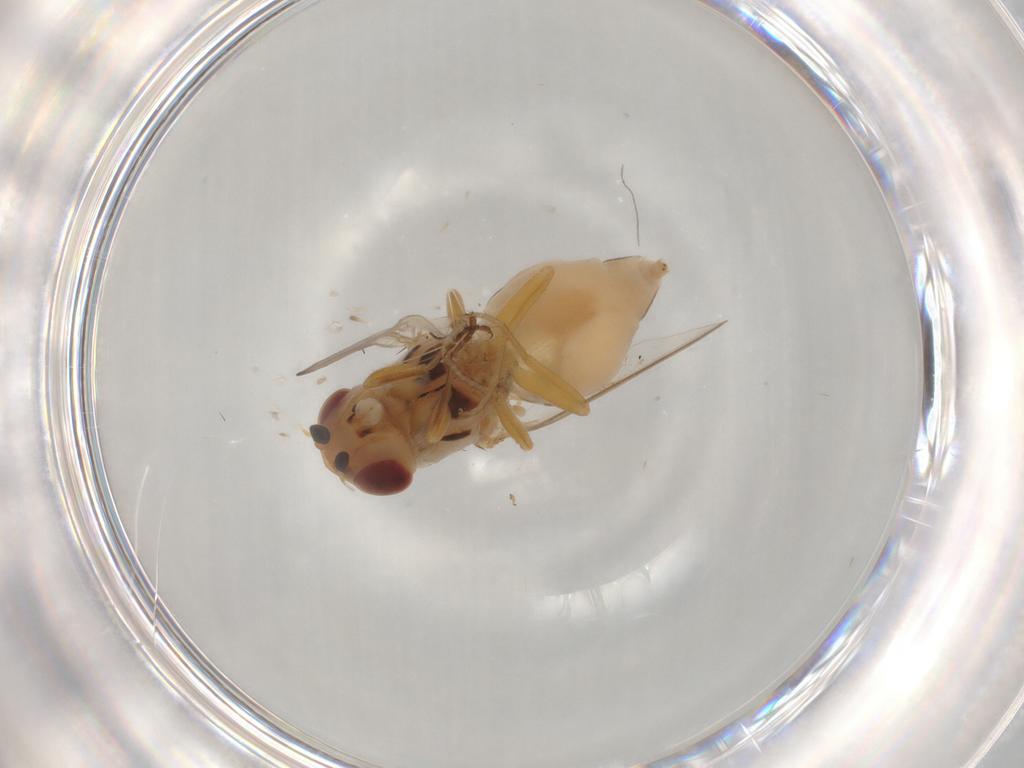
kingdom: Animalia
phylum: Arthropoda
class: Insecta
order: Diptera
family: Chloropidae
